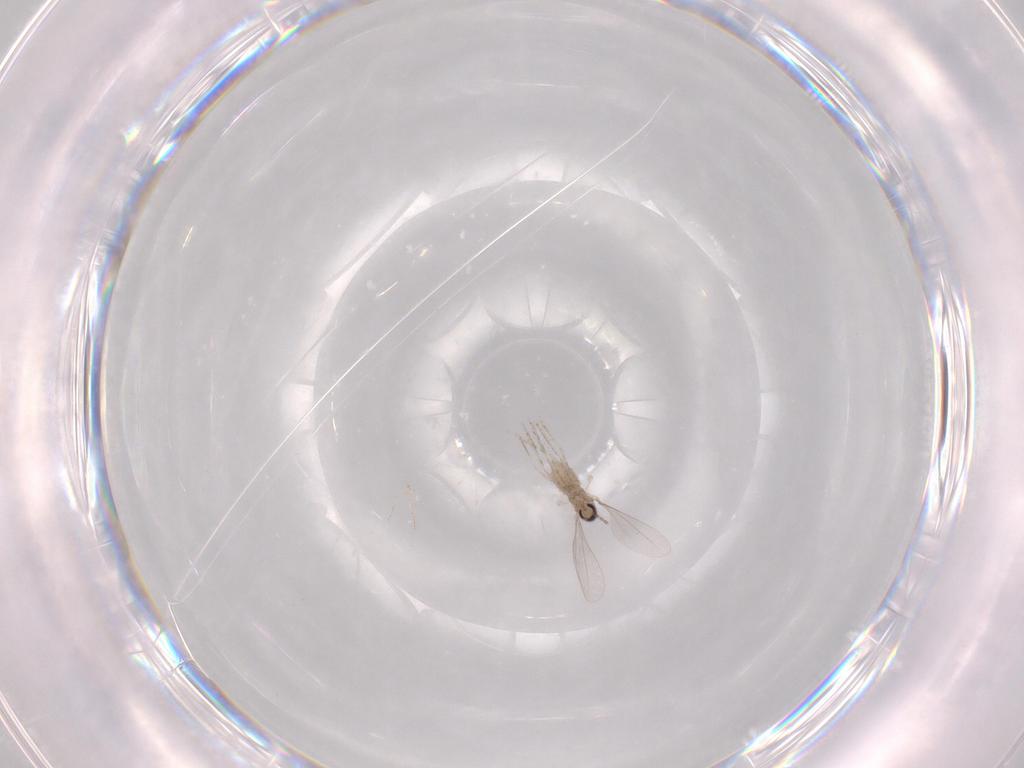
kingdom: Animalia
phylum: Arthropoda
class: Insecta
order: Diptera
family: Cecidomyiidae
